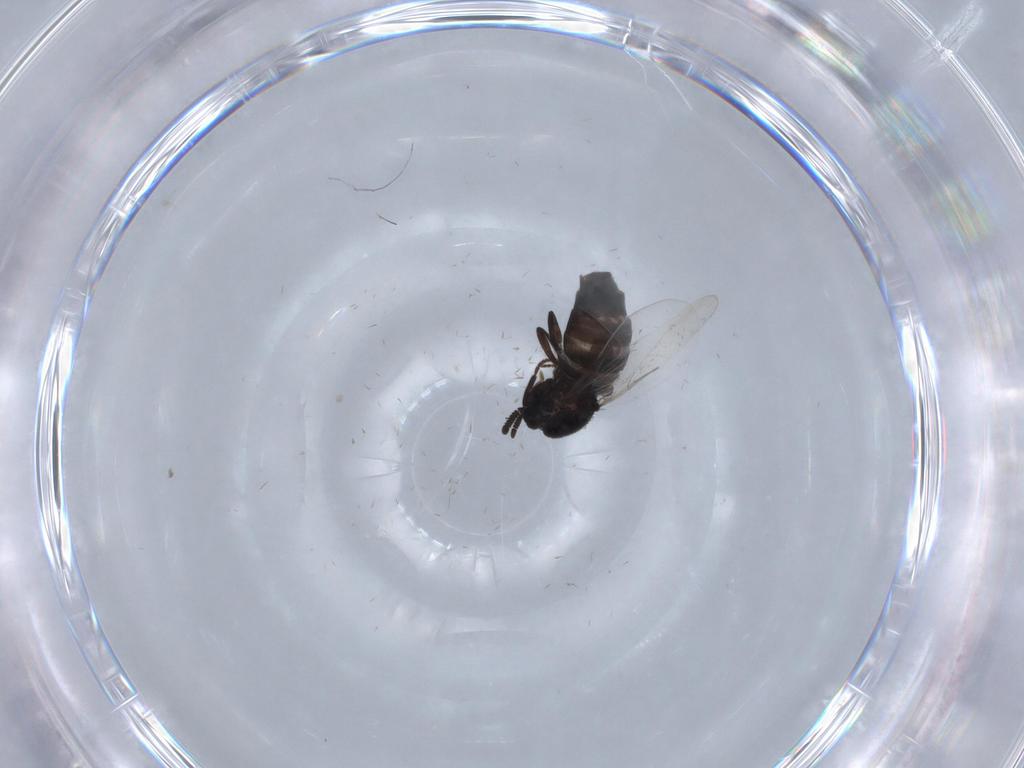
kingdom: Animalia
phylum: Arthropoda
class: Insecta
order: Diptera
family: Scatopsidae
